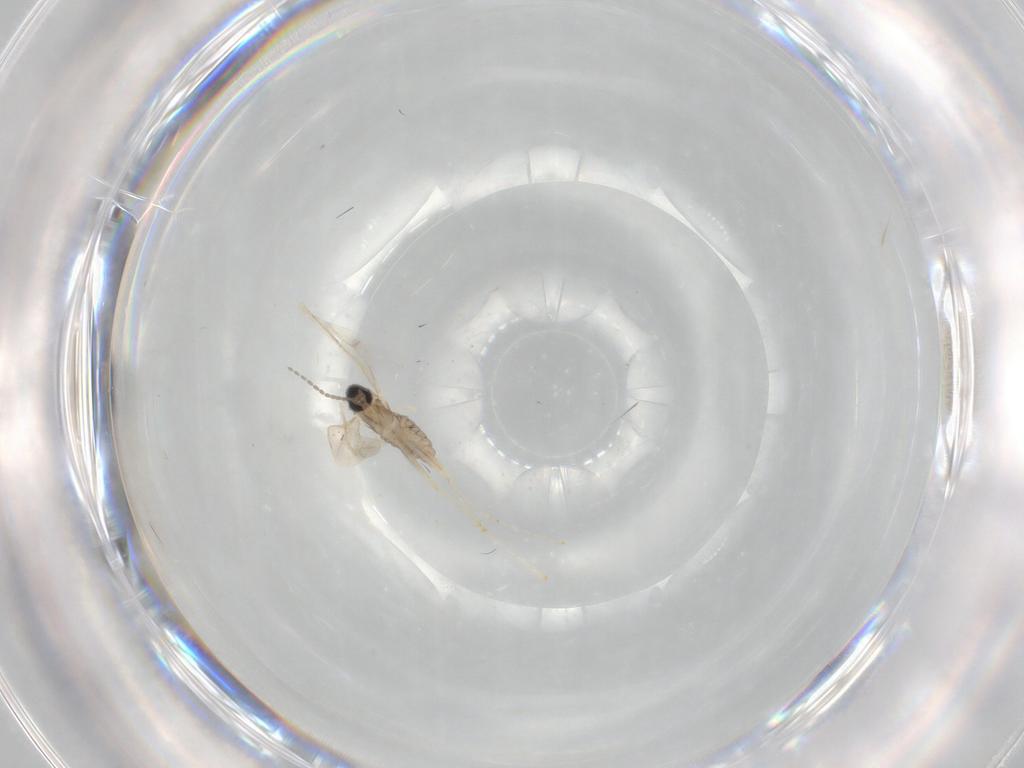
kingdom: Animalia
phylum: Arthropoda
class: Insecta
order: Diptera
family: Cecidomyiidae
